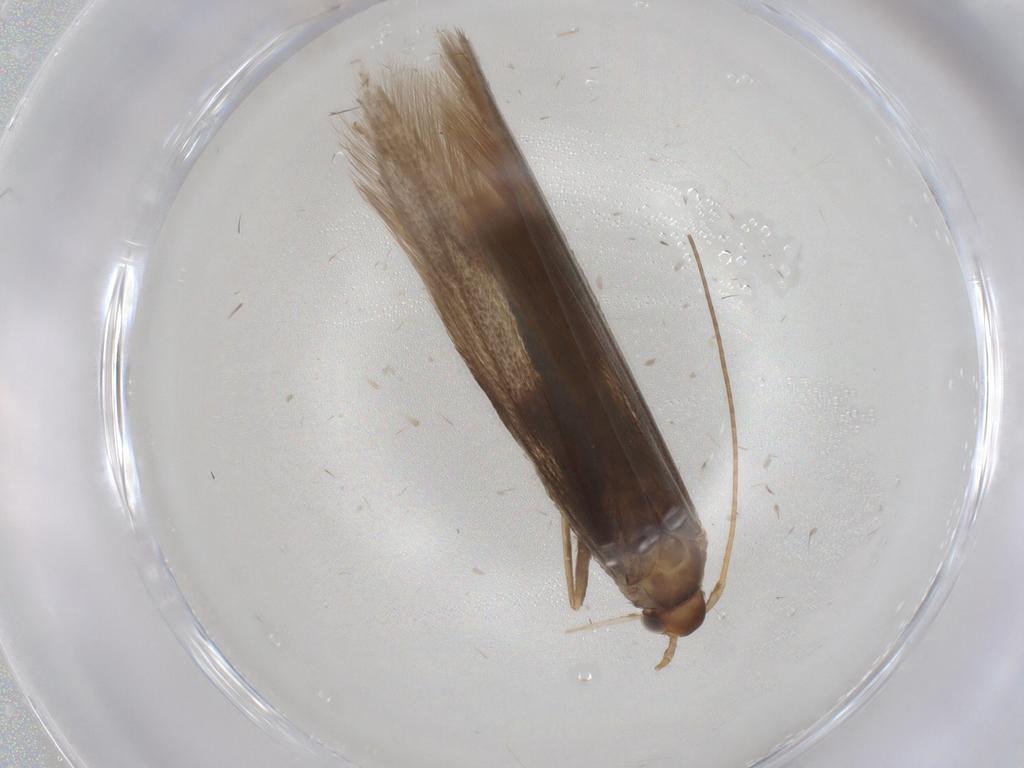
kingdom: Animalia
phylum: Arthropoda
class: Insecta
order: Lepidoptera
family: Coleophoridae
